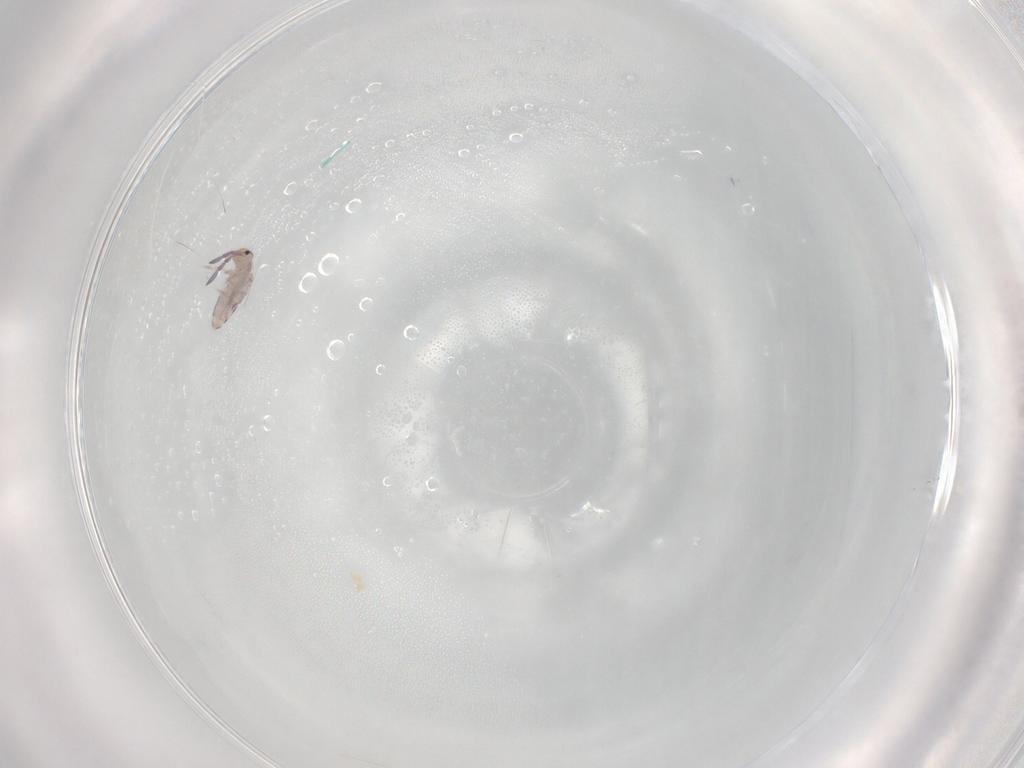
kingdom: Animalia
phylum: Arthropoda
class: Collembola
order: Entomobryomorpha
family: Entomobryidae
